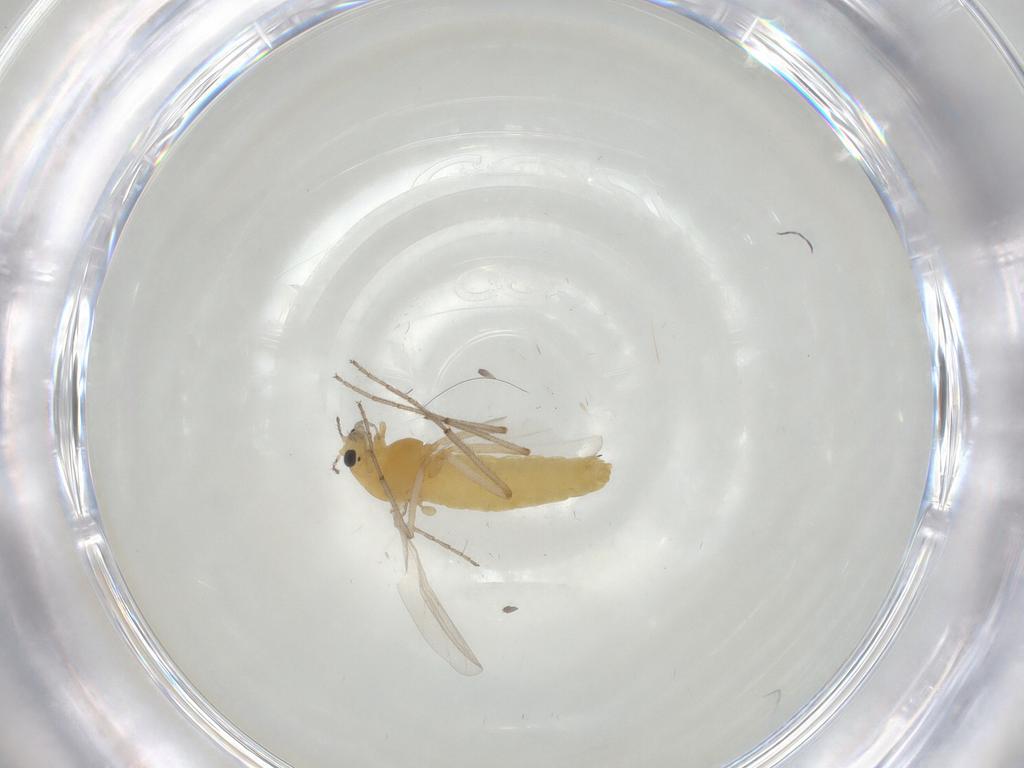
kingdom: Animalia
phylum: Arthropoda
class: Insecta
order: Diptera
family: Chironomidae
